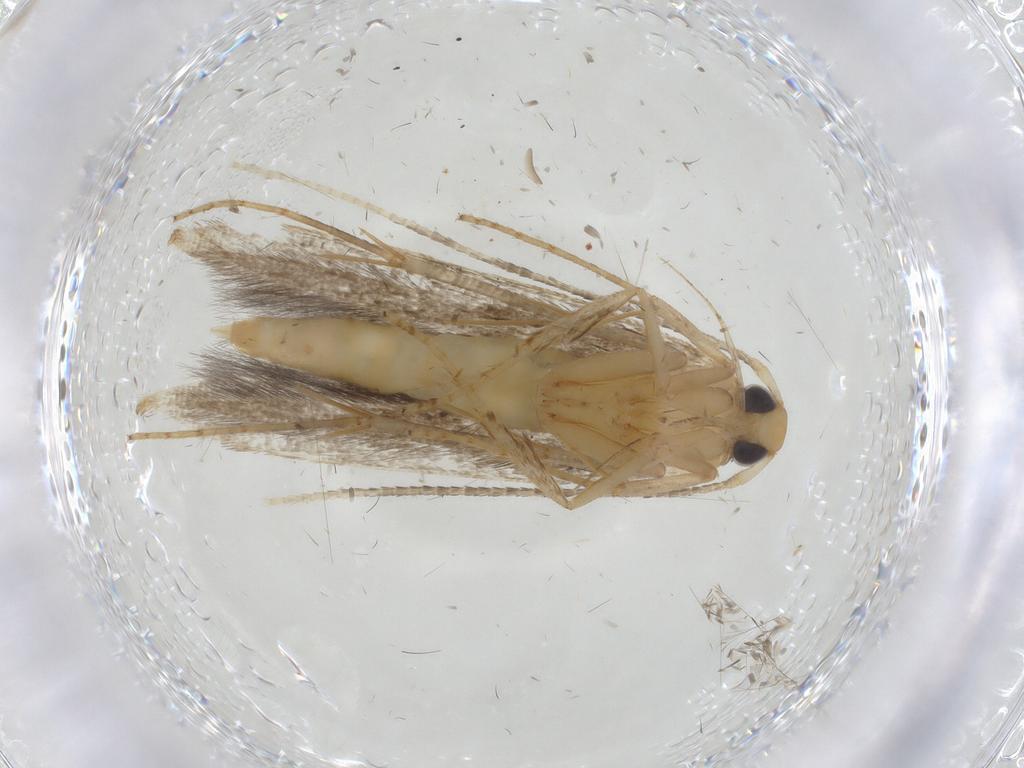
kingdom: Animalia
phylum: Arthropoda
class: Insecta
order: Lepidoptera
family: Pterolonchidae
